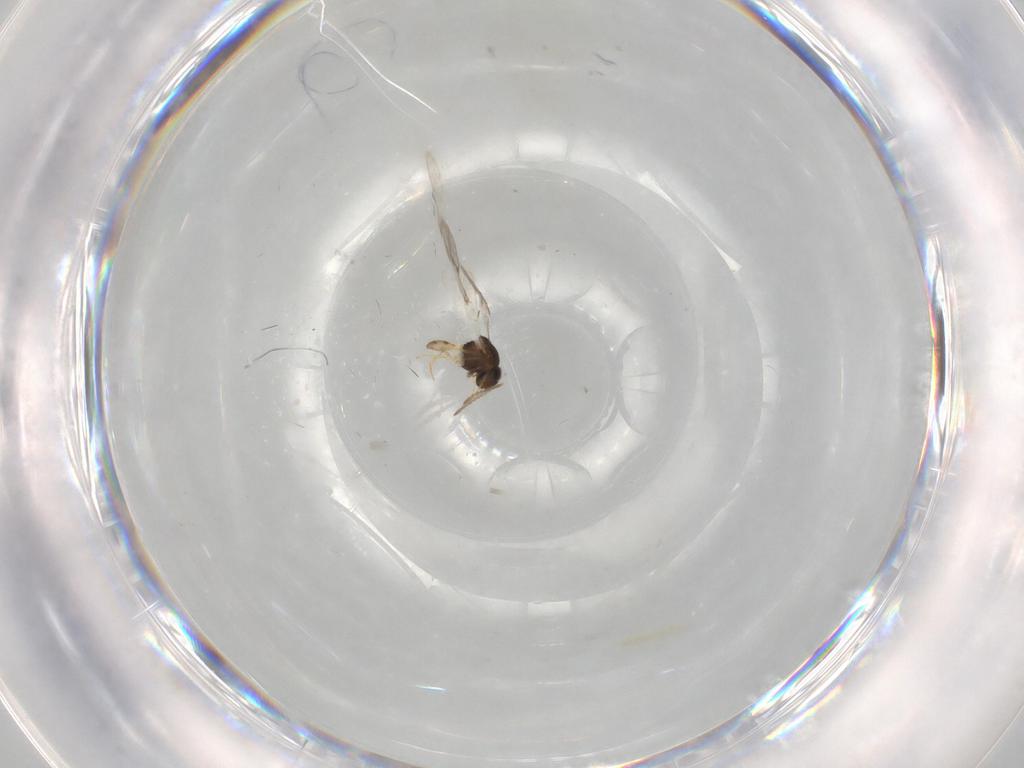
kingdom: Animalia
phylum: Arthropoda
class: Insecta
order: Hymenoptera
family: Scelionidae
